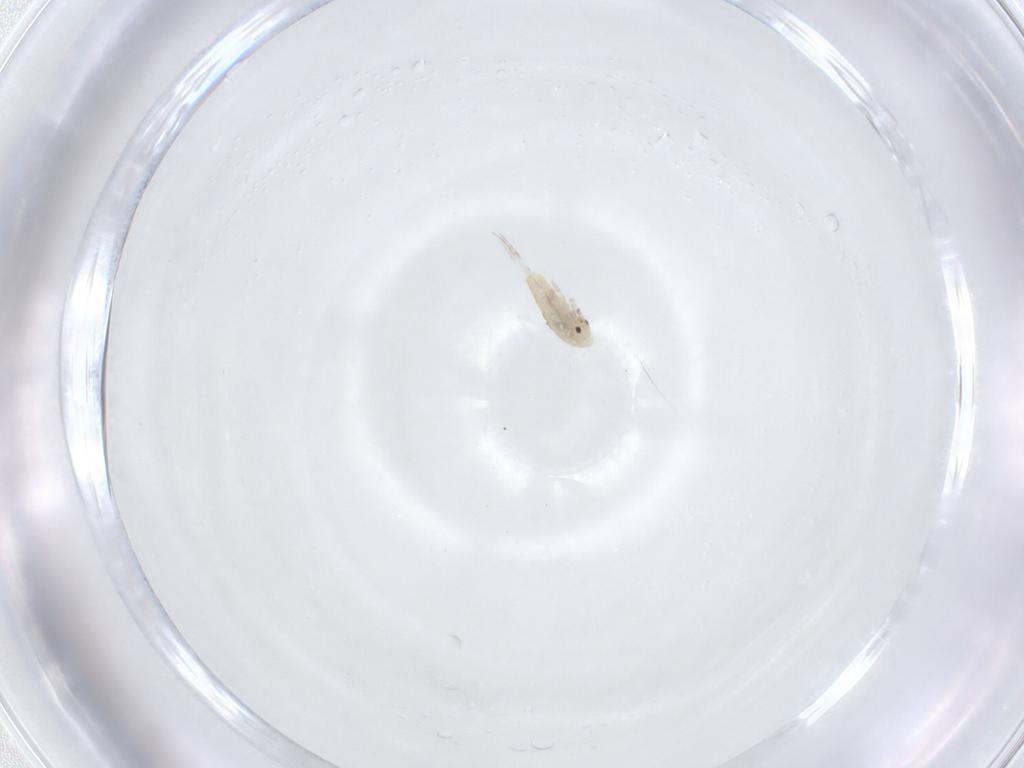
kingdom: Animalia
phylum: Arthropoda
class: Collembola
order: Entomobryomorpha
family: Entomobryidae
